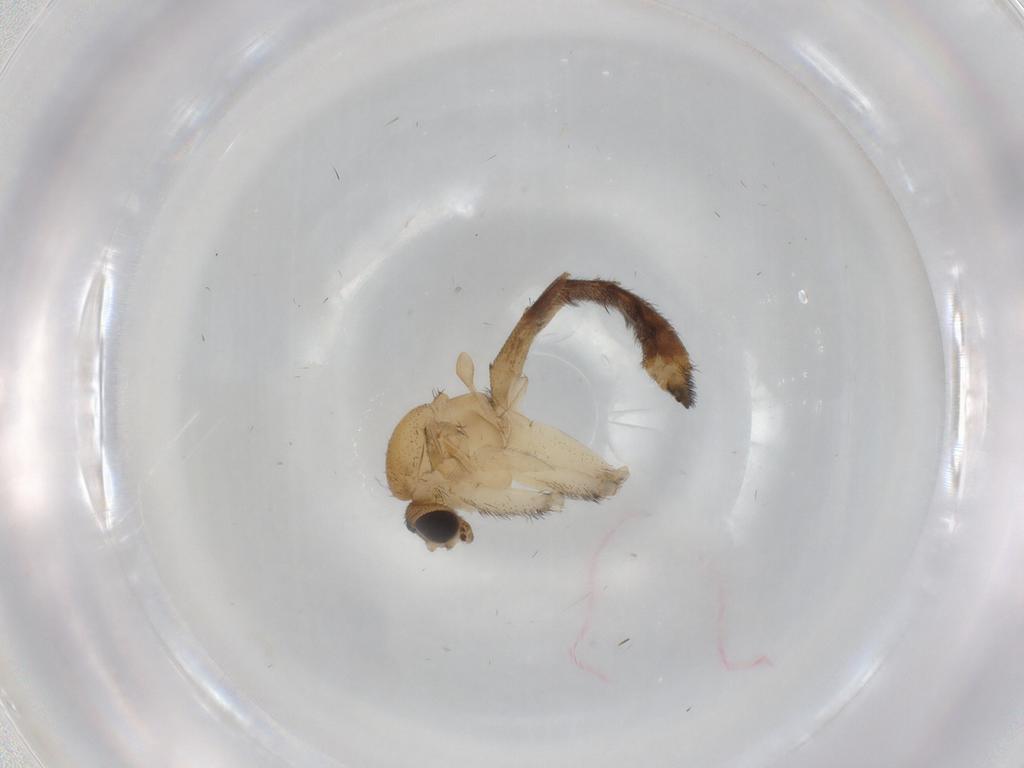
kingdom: Animalia
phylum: Arthropoda
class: Insecta
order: Diptera
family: Keroplatidae
